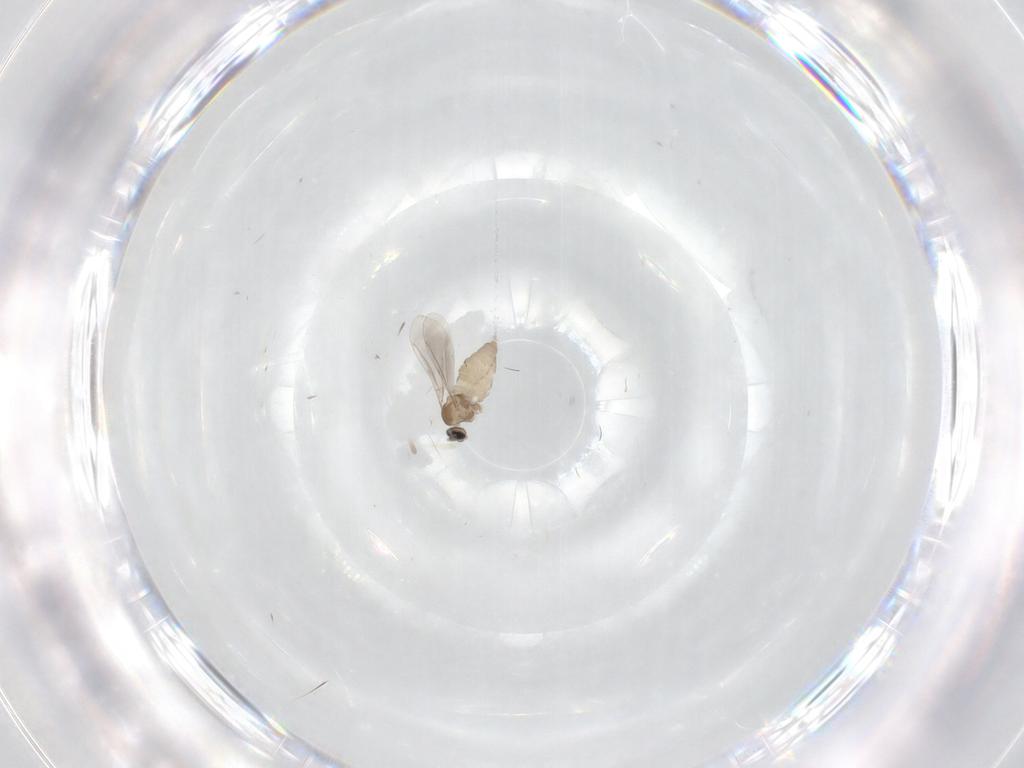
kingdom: Animalia
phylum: Arthropoda
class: Insecta
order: Diptera
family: Cecidomyiidae
